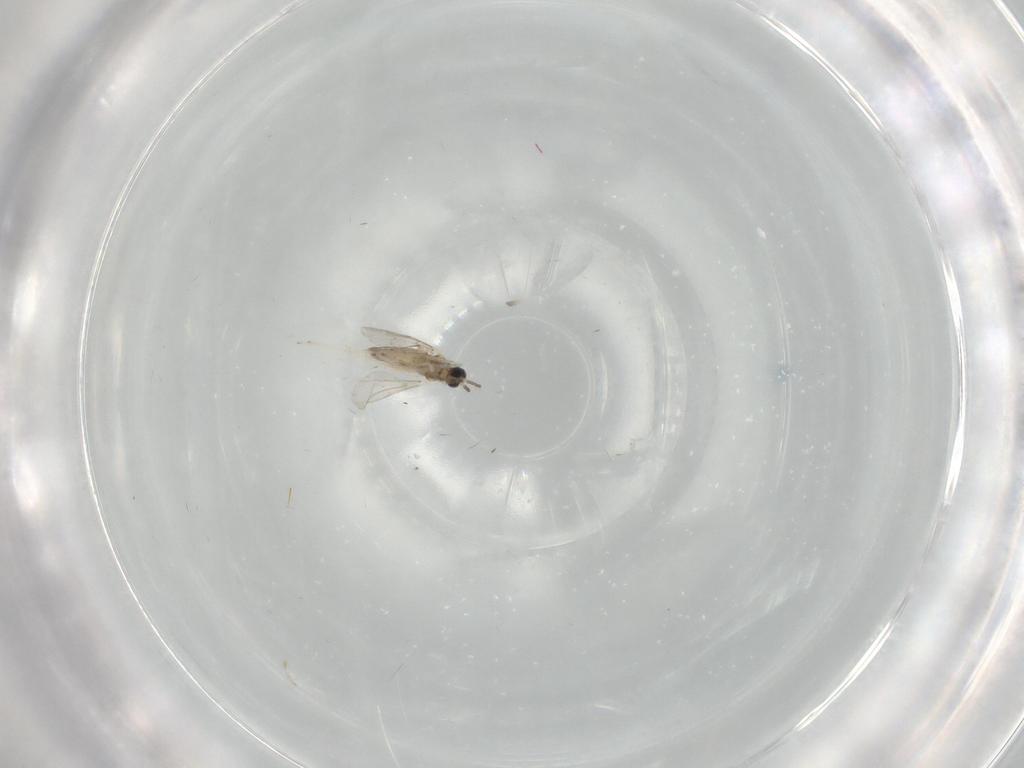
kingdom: Animalia
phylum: Arthropoda
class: Insecta
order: Diptera
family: Cecidomyiidae
